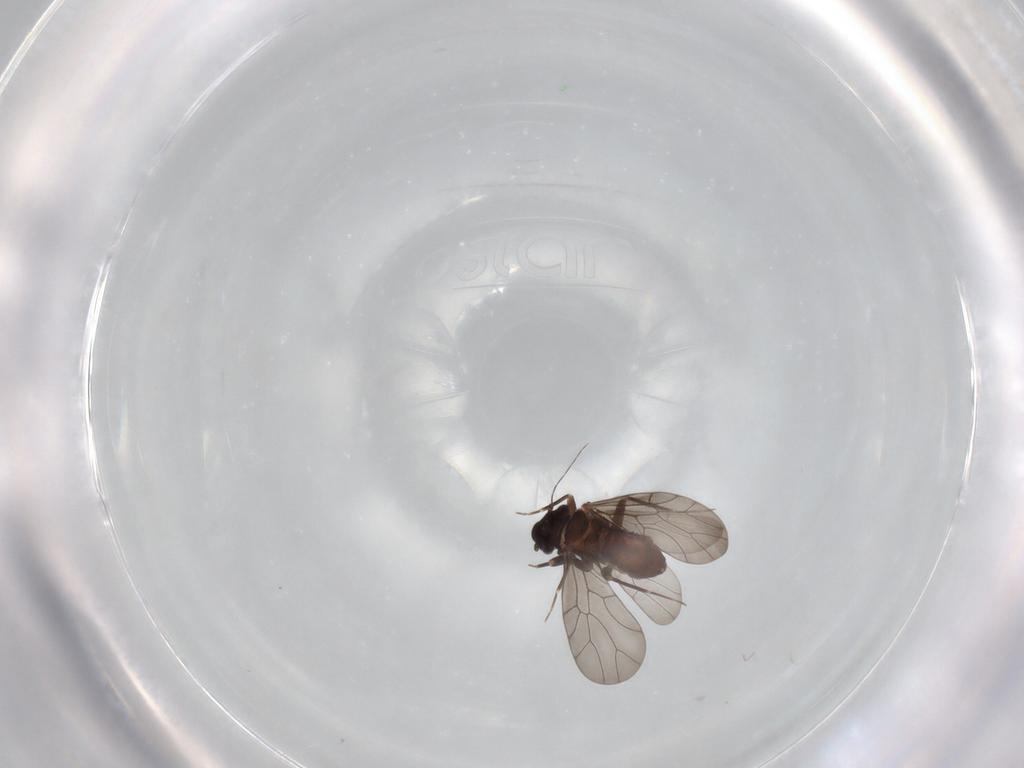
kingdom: Animalia
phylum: Arthropoda
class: Insecta
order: Psocodea
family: Lepidopsocidae
